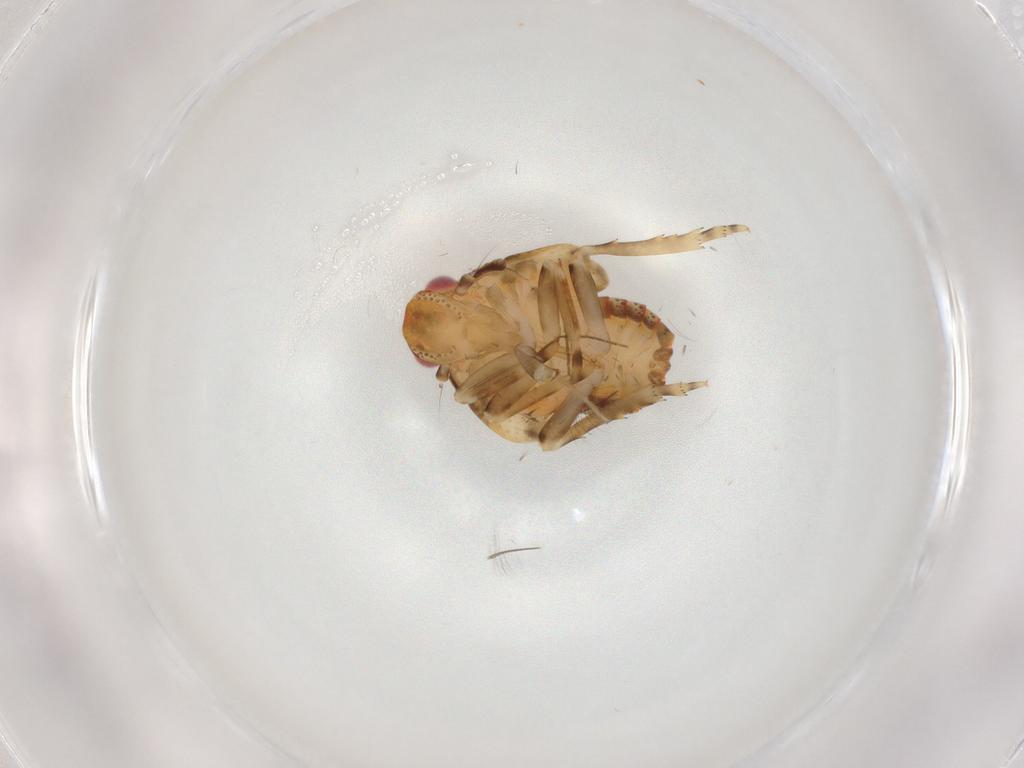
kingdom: Animalia
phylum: Arthropoda
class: Insecta
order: Hemiptera
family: Flatidae
